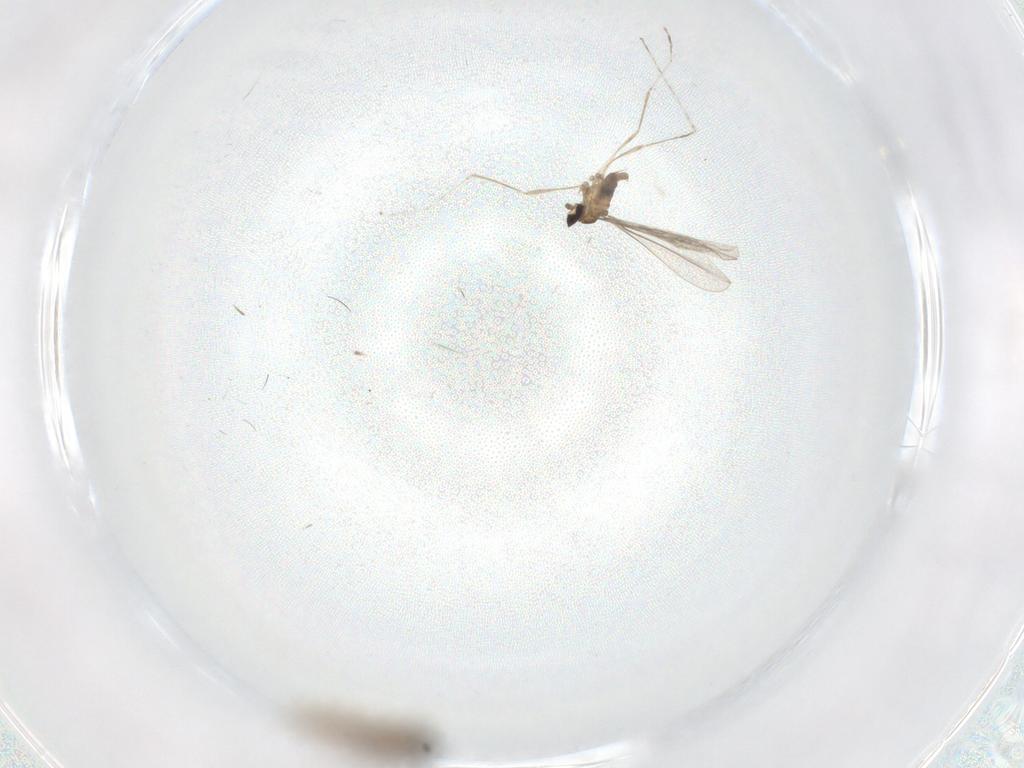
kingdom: Animalia
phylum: Arthropoda
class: Insecta
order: Diptera
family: Cecidomyiidae
